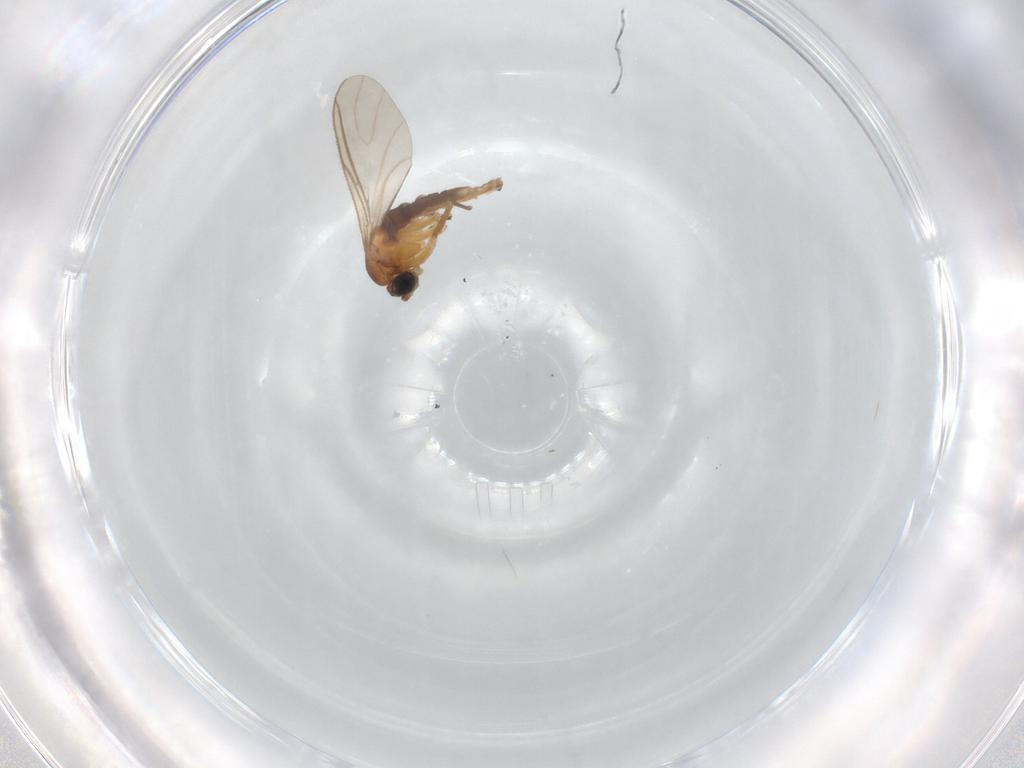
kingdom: Animalia
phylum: Arthropoda
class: Insecta
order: Diptera
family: Sciaridae
